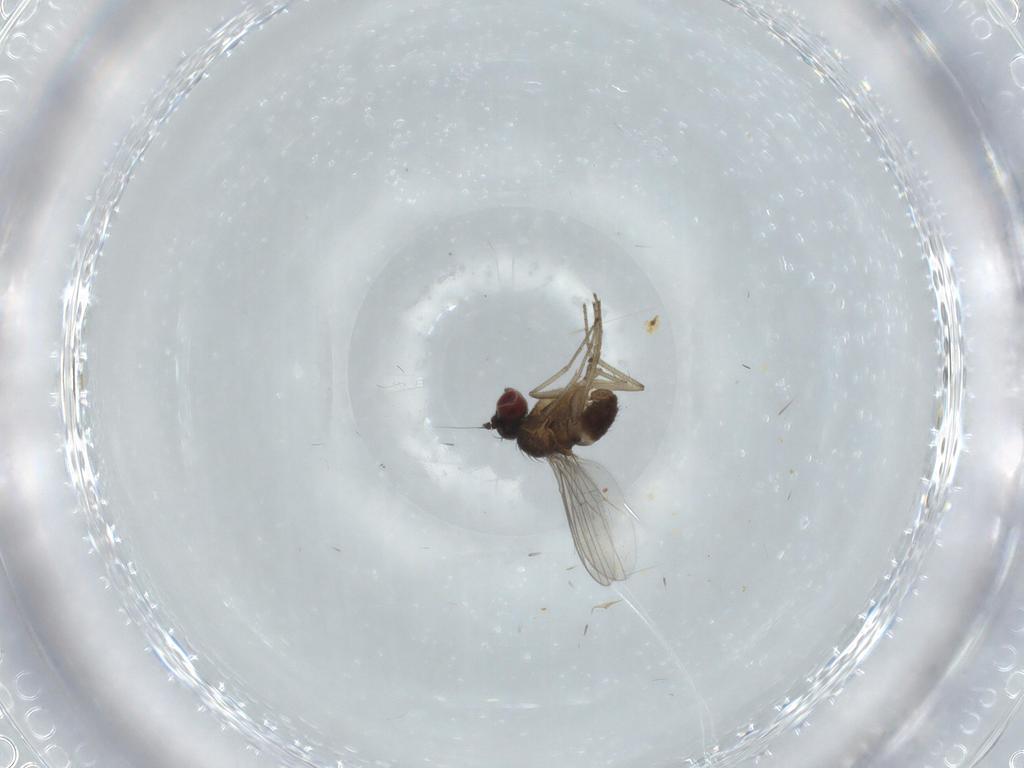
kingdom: Animalia
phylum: Arthropoda
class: Insecta
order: Diptera
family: Dolichopodidae
